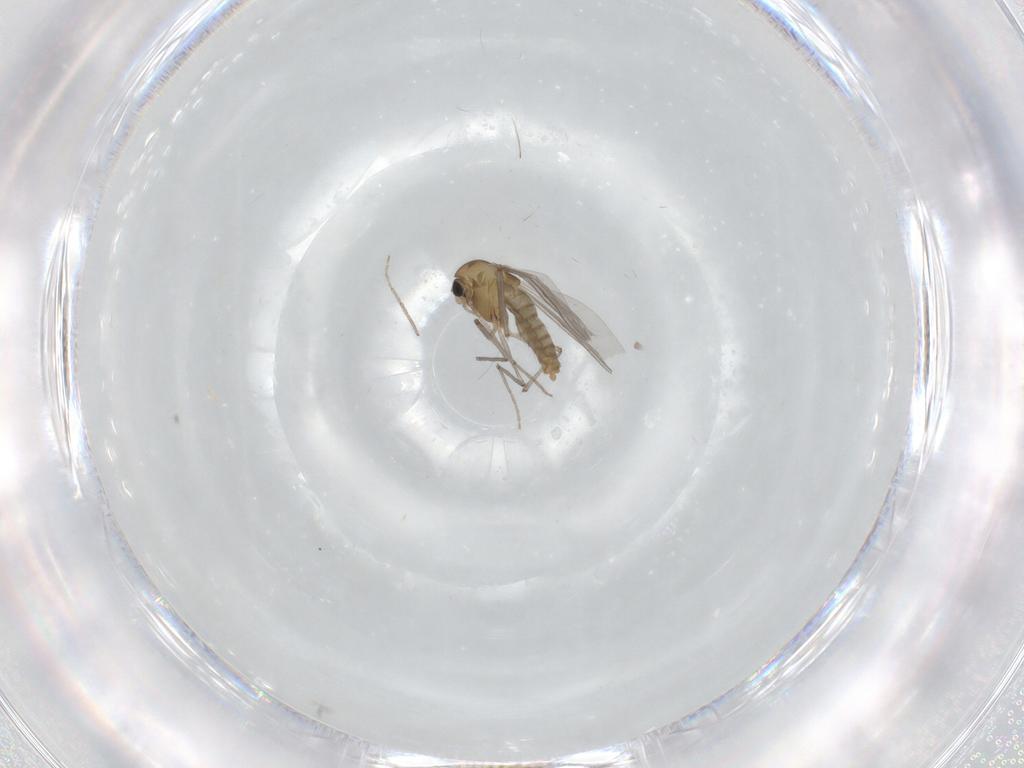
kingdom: Animalia
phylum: Arthropoda
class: Insecta
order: Diptera
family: Chironomidae
